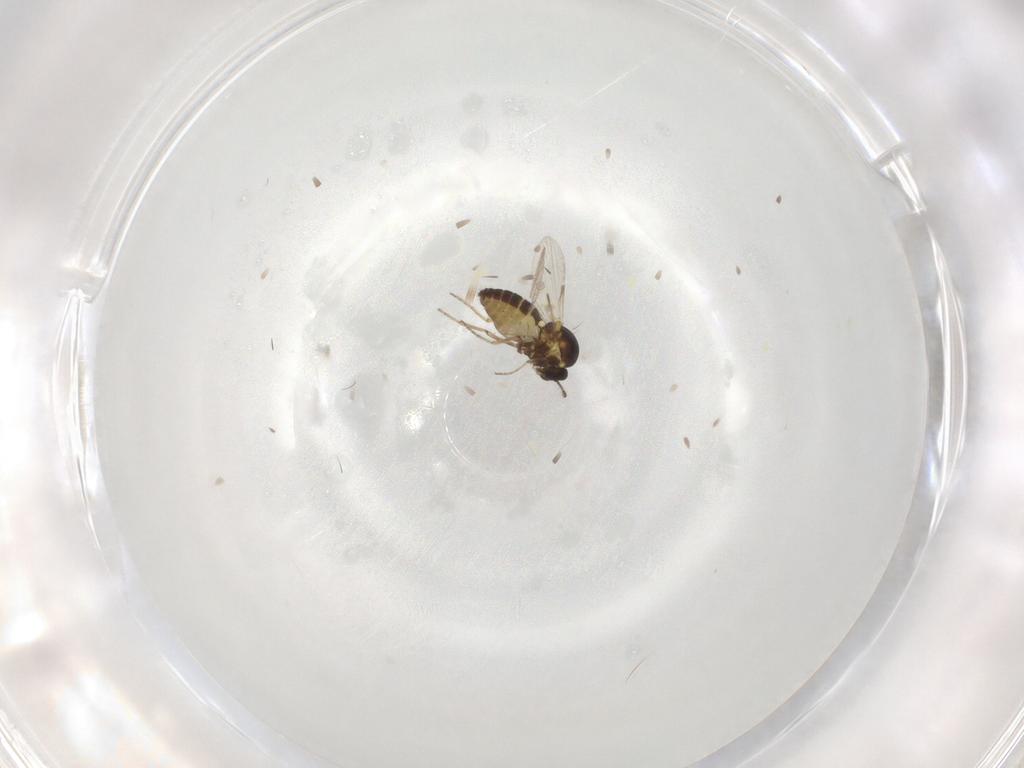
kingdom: Animalia
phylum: Arthropoda
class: Insecta
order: Diptera
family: Ceratopogonidae
